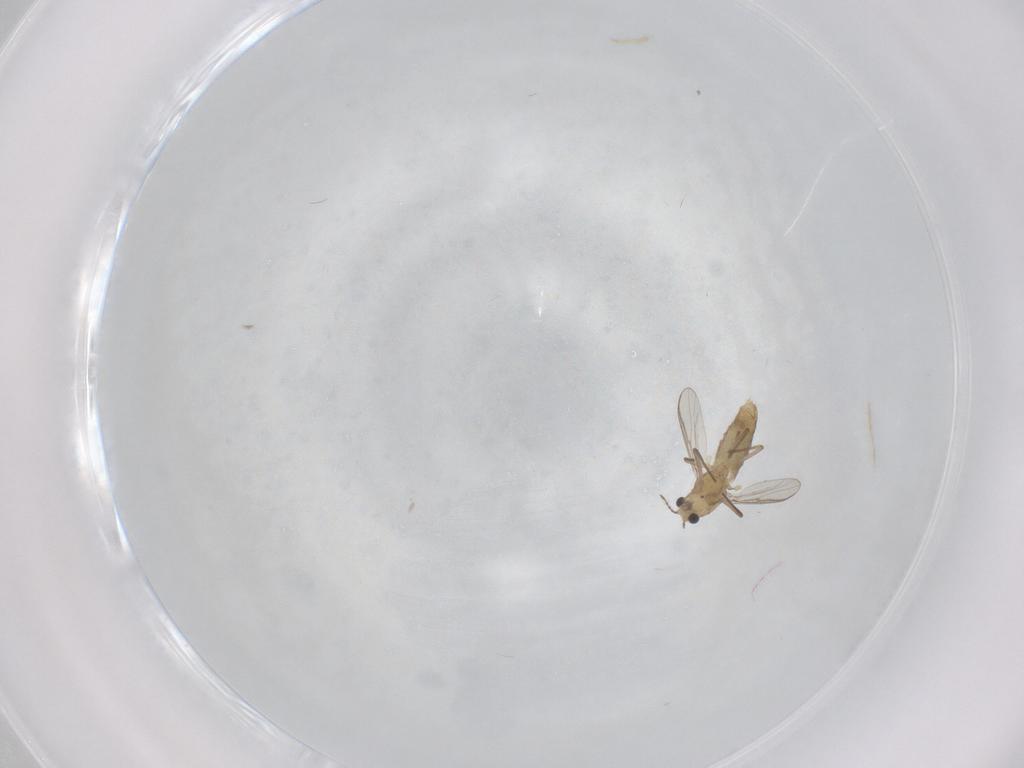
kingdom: Animalia
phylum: Arthropoda
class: Insecta
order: Diptera
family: Chironomidae
